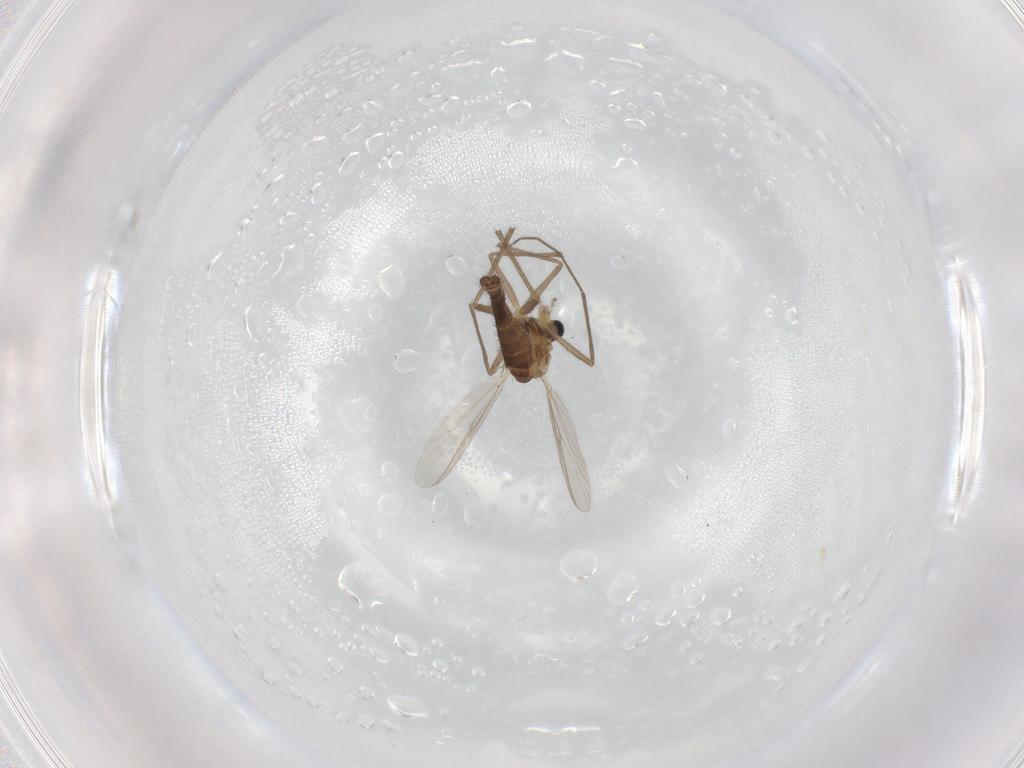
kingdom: Animalia
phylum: Arthropoda
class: Insecta
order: Diptera
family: Chironomidae
